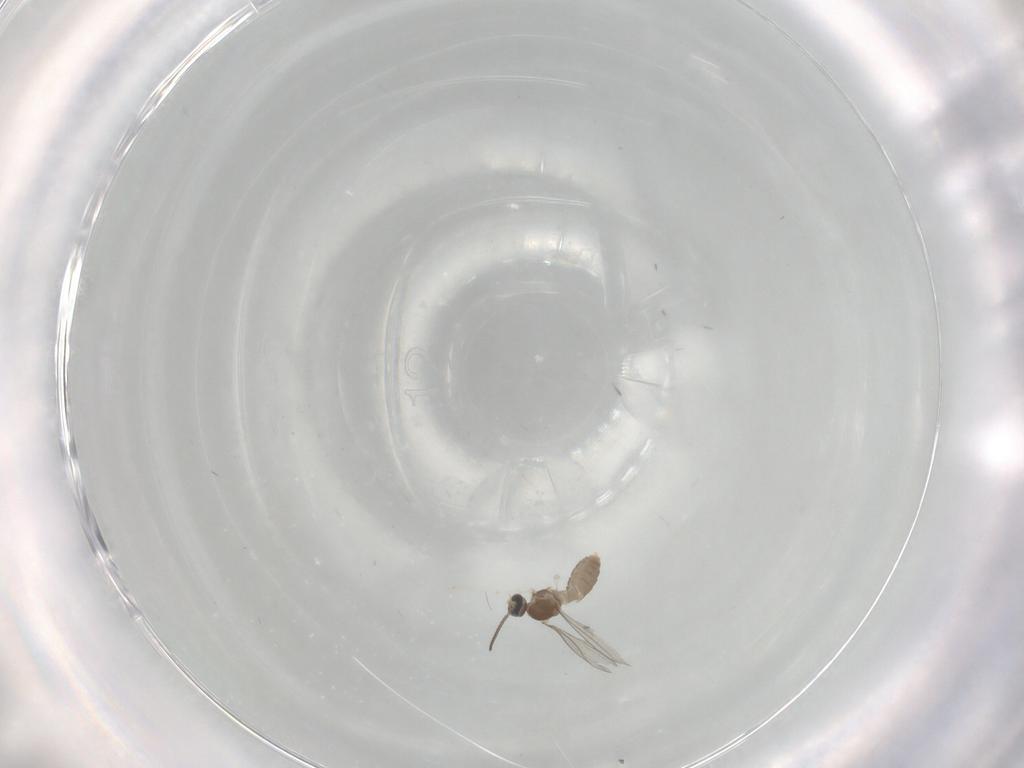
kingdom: Animalia
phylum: Arthropoda
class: Insecta
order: Diptera
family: Cecidomyiidae
